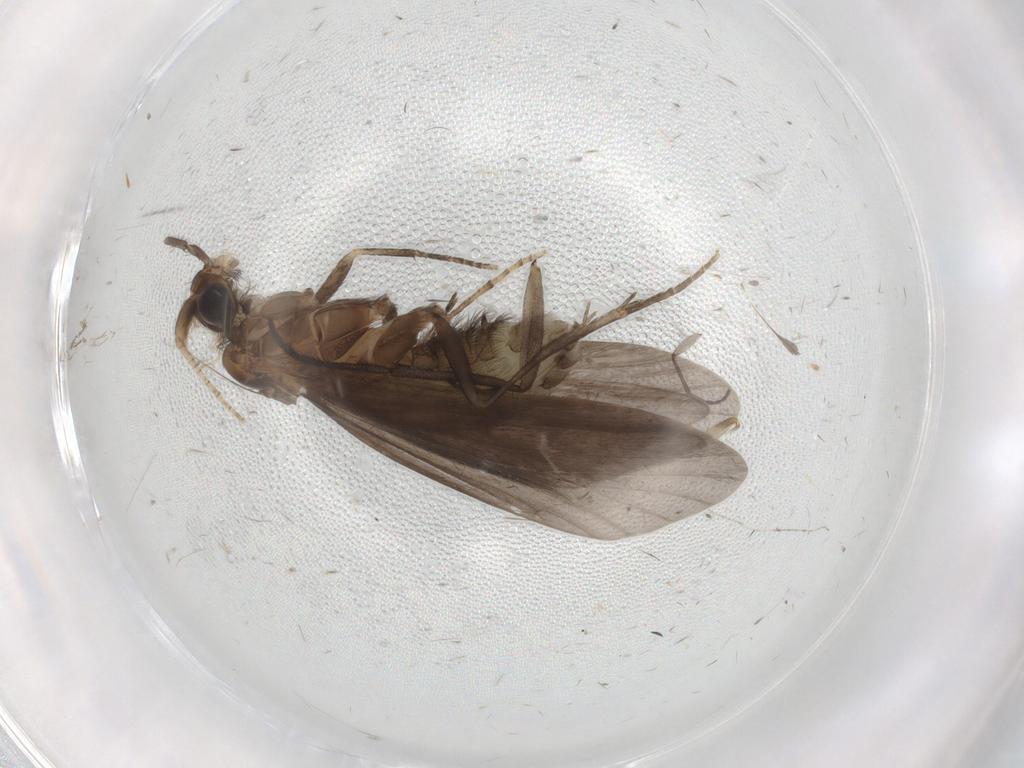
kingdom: Animalia
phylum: Arthropoda
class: Insecta
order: Trichoptera
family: Helicopsychidae
